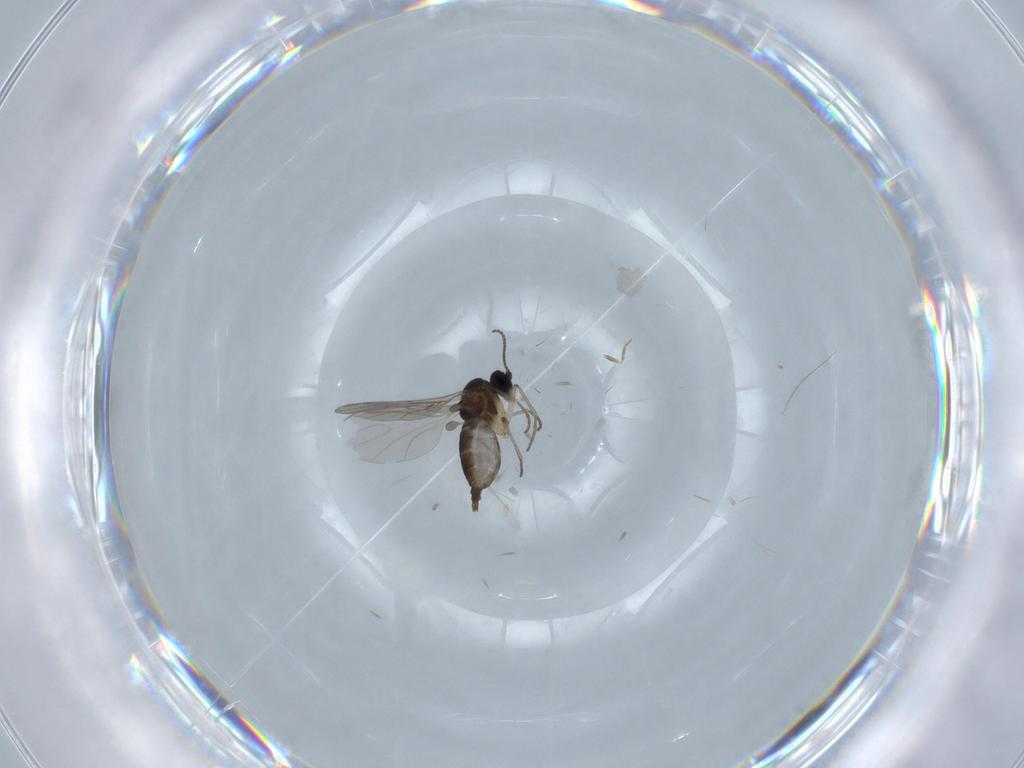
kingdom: Animalia
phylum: Arthropoda
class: Insecta
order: Diptera
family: Sciaridae
